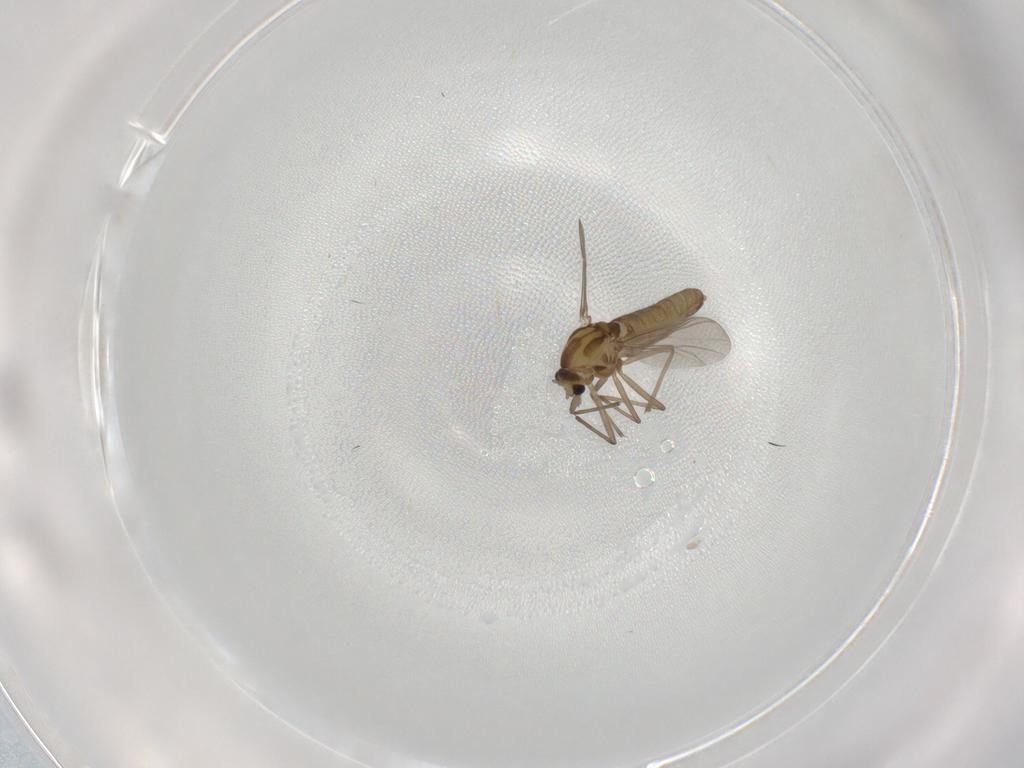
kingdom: Animalia
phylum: Arthropoda
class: Insecta
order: Diptera
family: Chironomidae
